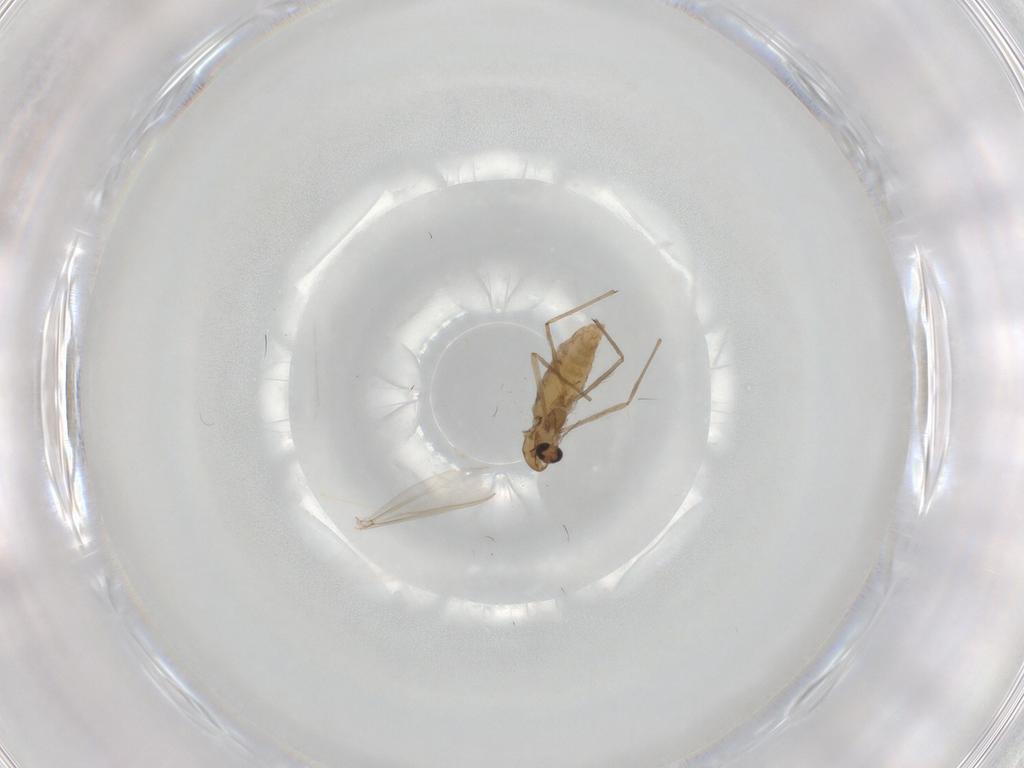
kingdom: Animalia
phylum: Arthropoda
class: Insecta
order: Diptera
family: Chironomidae
